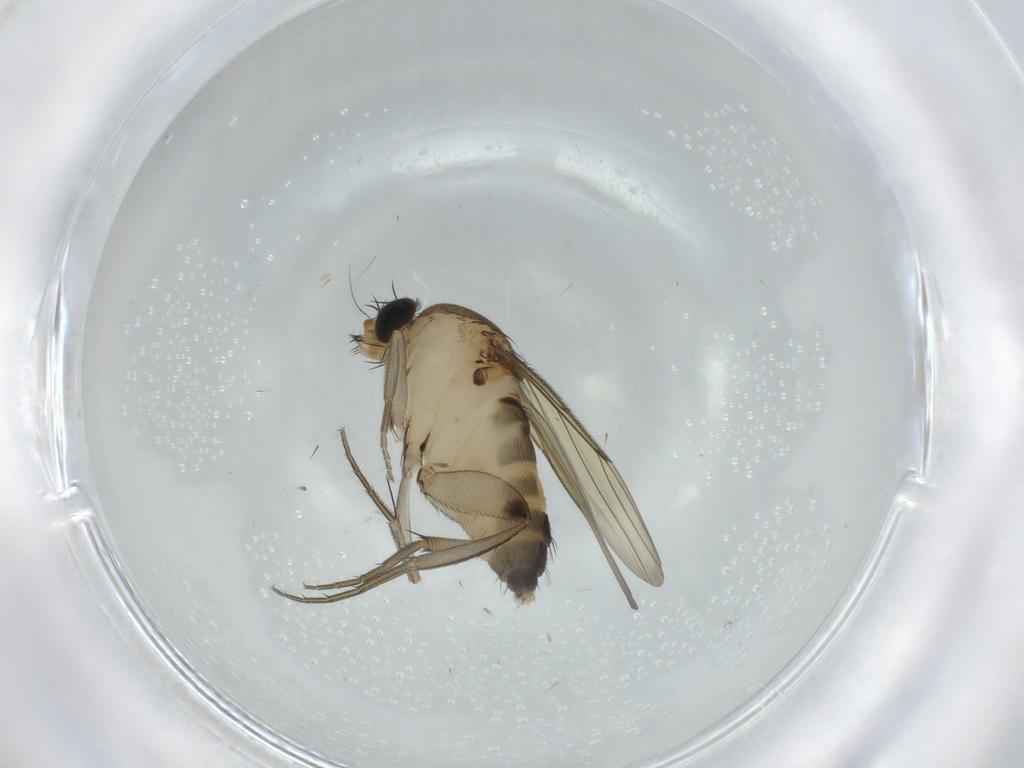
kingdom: Animalia
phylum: Arthropoda
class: Insecta
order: Diptera
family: Phoridae
